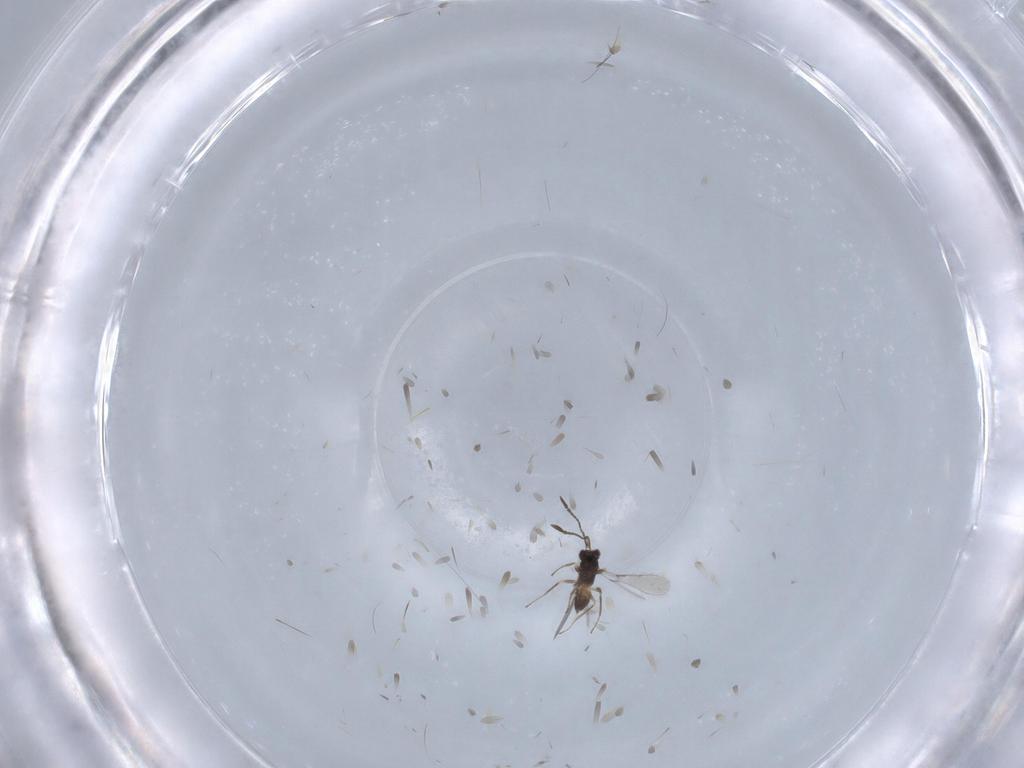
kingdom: Animalia
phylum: Arthropoda
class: Insecta
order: Hymenoptera
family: Mymaridae
